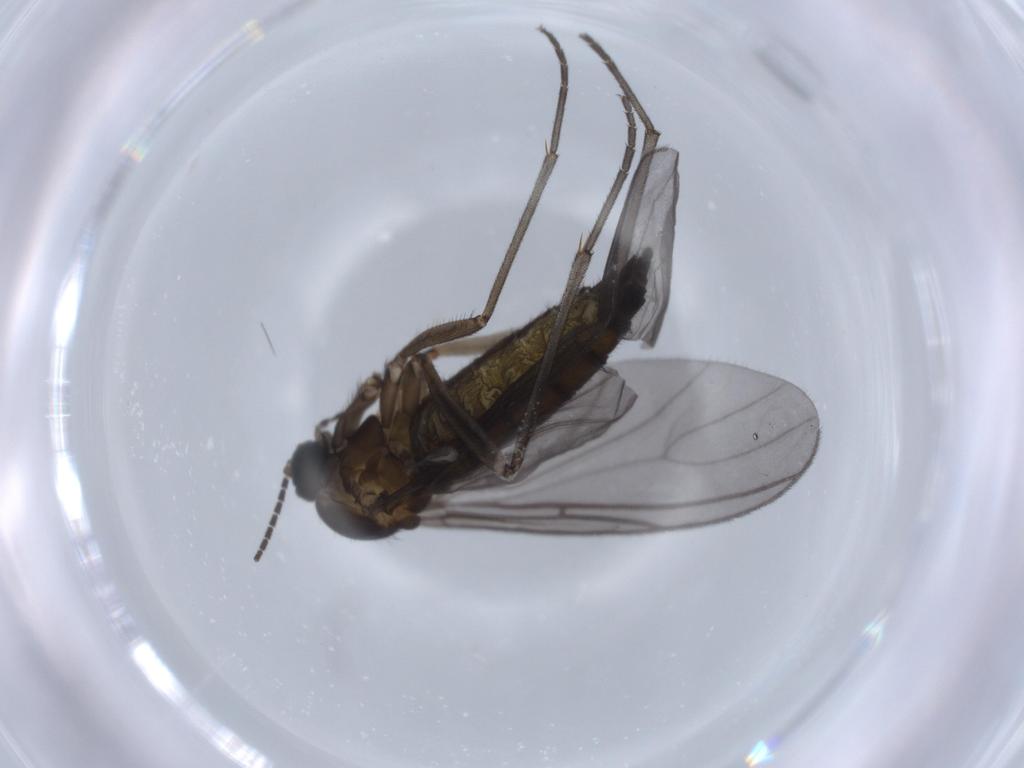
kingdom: Animalia
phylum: Arthropoda
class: Insecta
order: Diptera
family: Sciaridae
